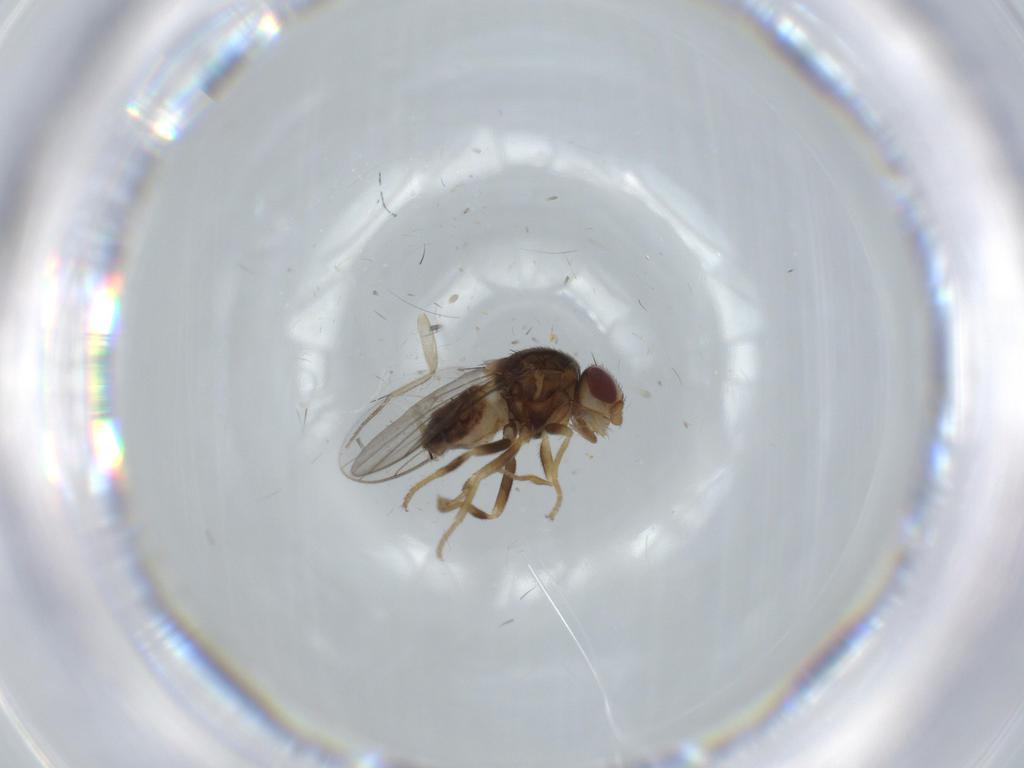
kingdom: Animalia
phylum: Arthropoda
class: Insecta
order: Diptera
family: Chloropidae
